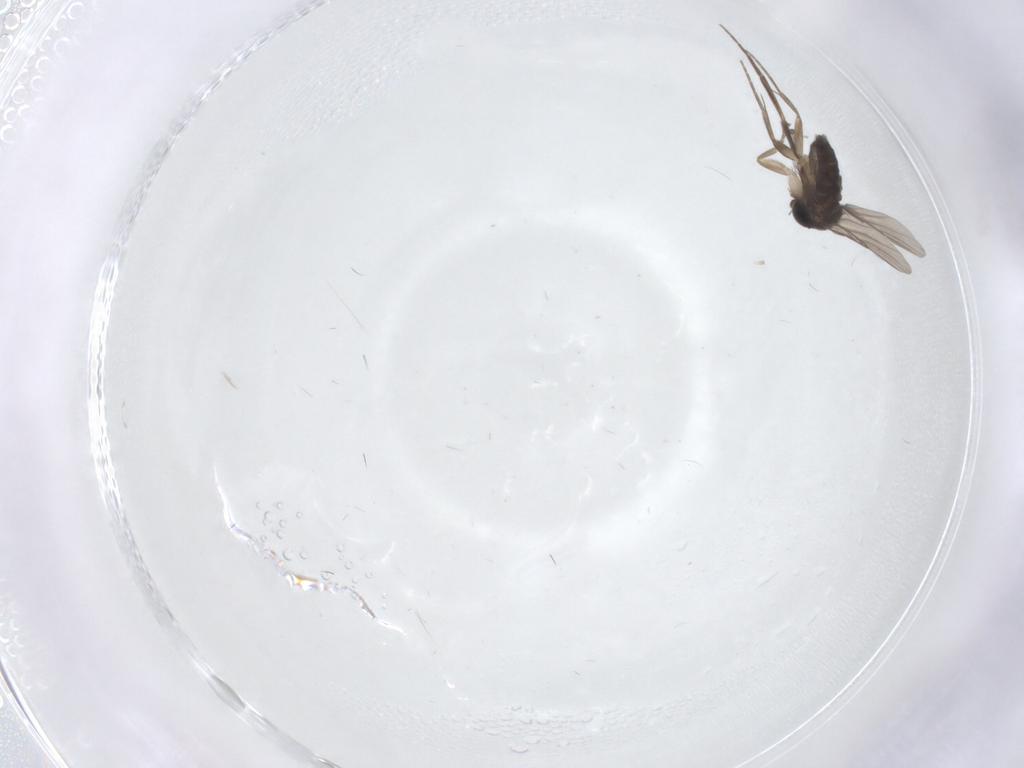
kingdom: Animalia
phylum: Arthropoda
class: Insecta
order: Diptera
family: Phoridae
